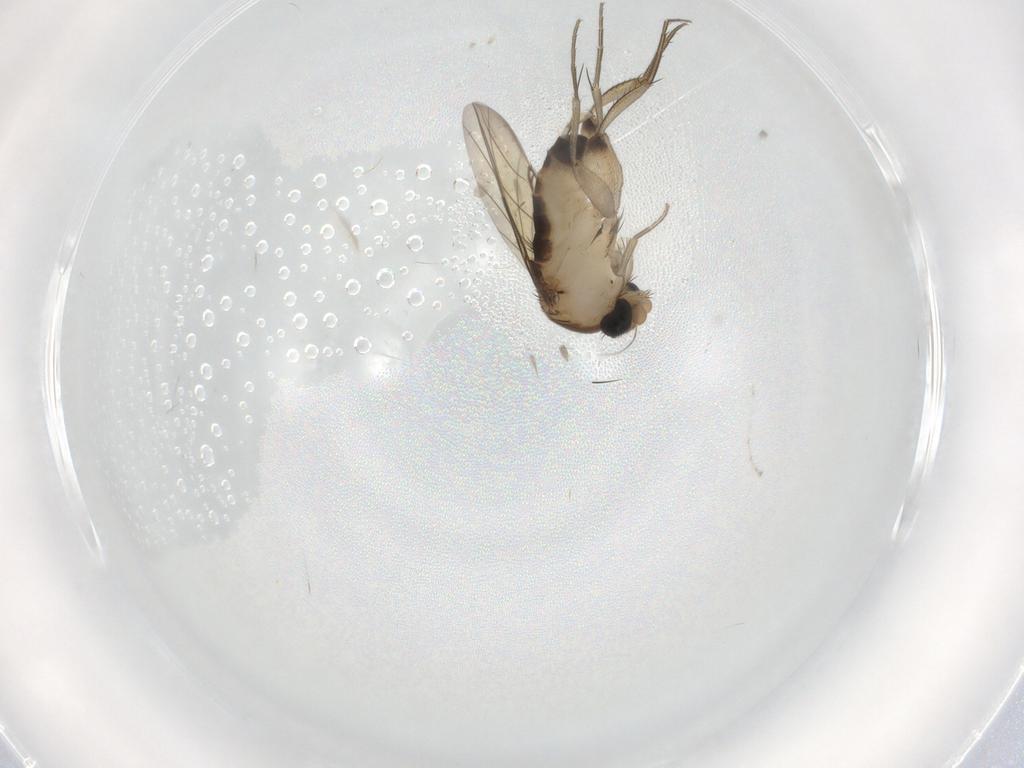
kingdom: Animalia
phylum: Arthropoda
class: Insecta
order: Diptera
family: Phoridae
